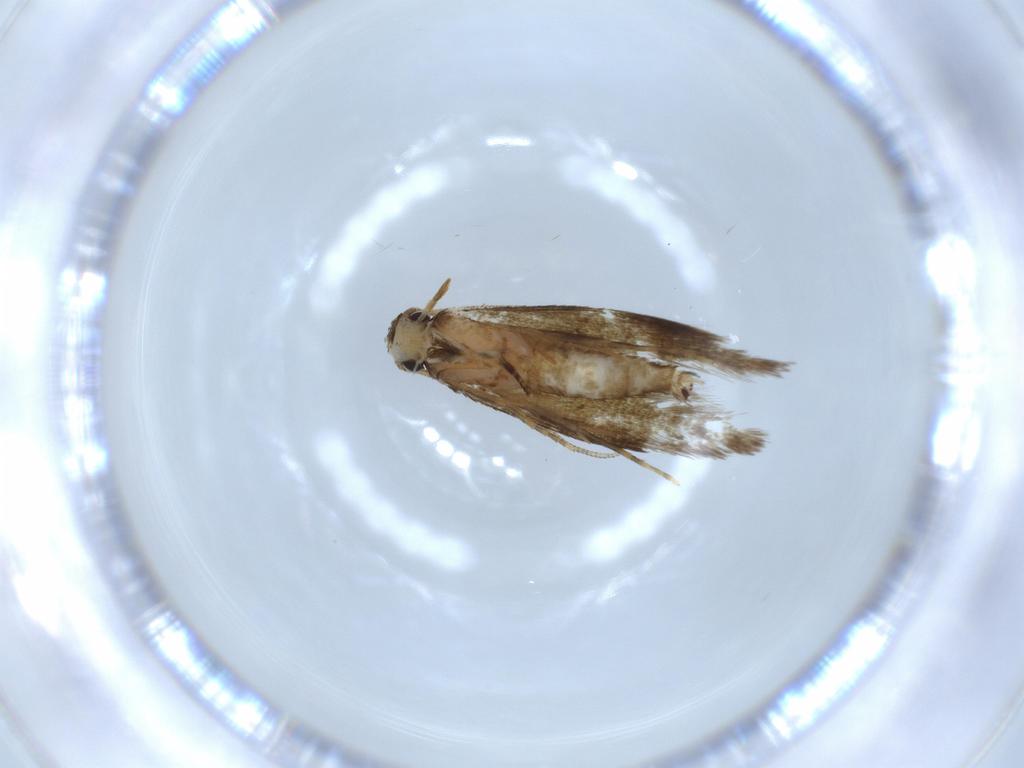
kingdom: Animalia
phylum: Arthropoda
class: Insecta
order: Lepidoptera
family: Tineidae
